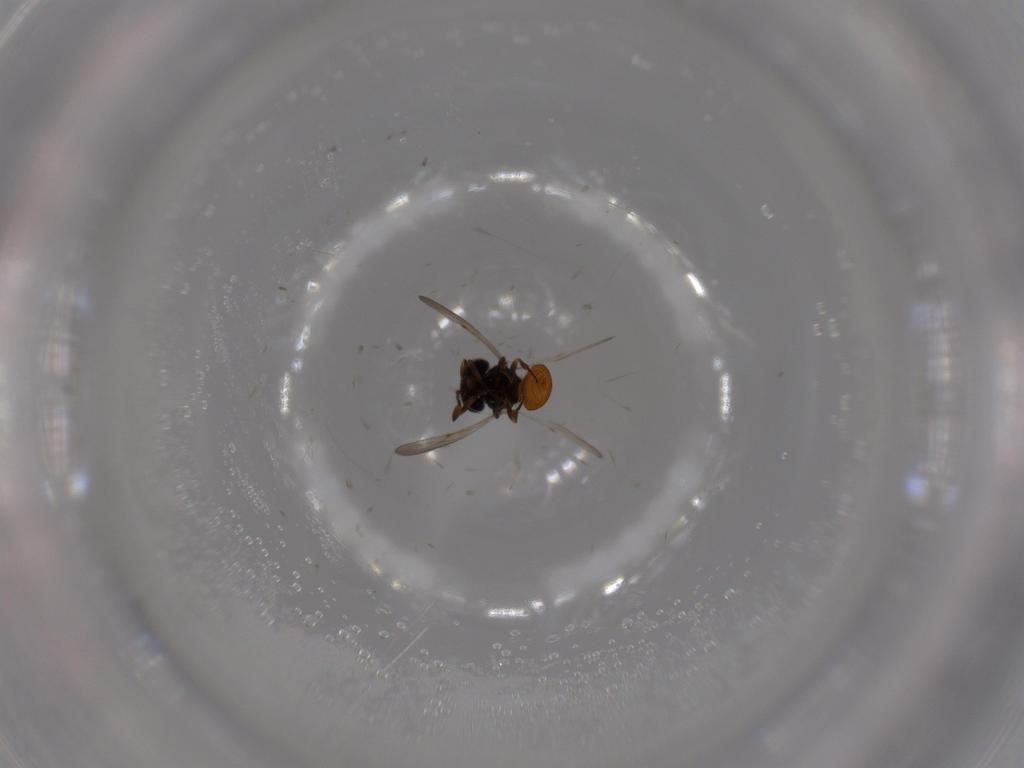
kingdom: Animalia
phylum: Arthropoda
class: Insecta
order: Hymenoptera
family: Scelionidae
